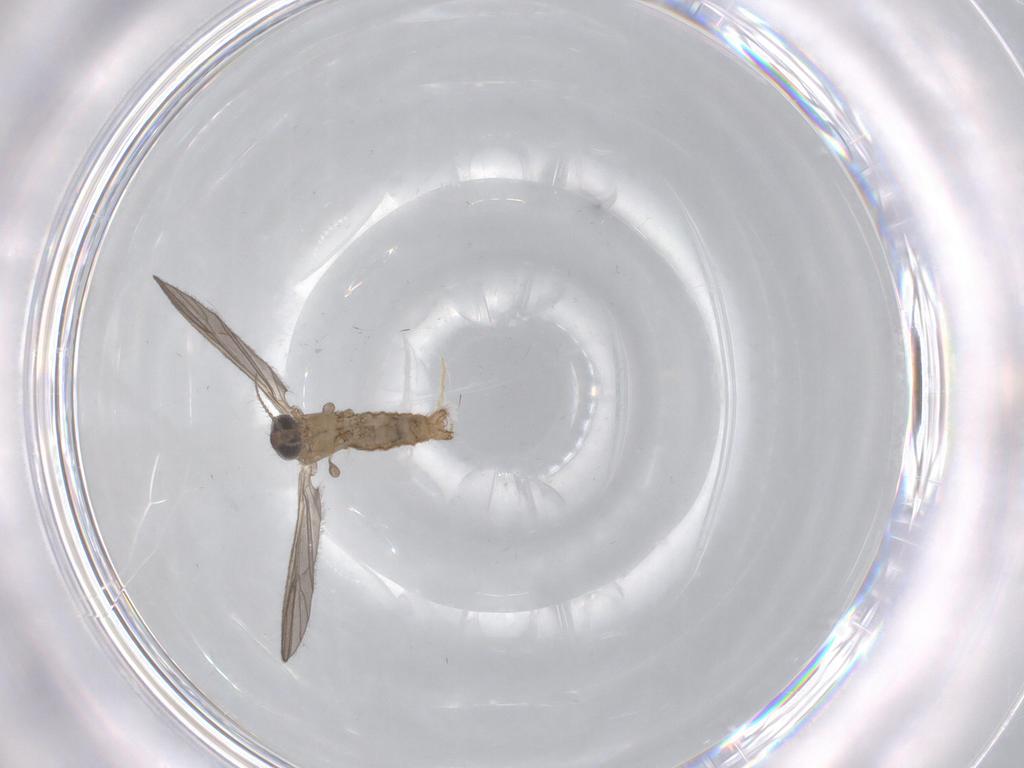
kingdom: Animalia
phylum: Arthropoda
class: Insecta
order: Diptera
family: Limoniidae
